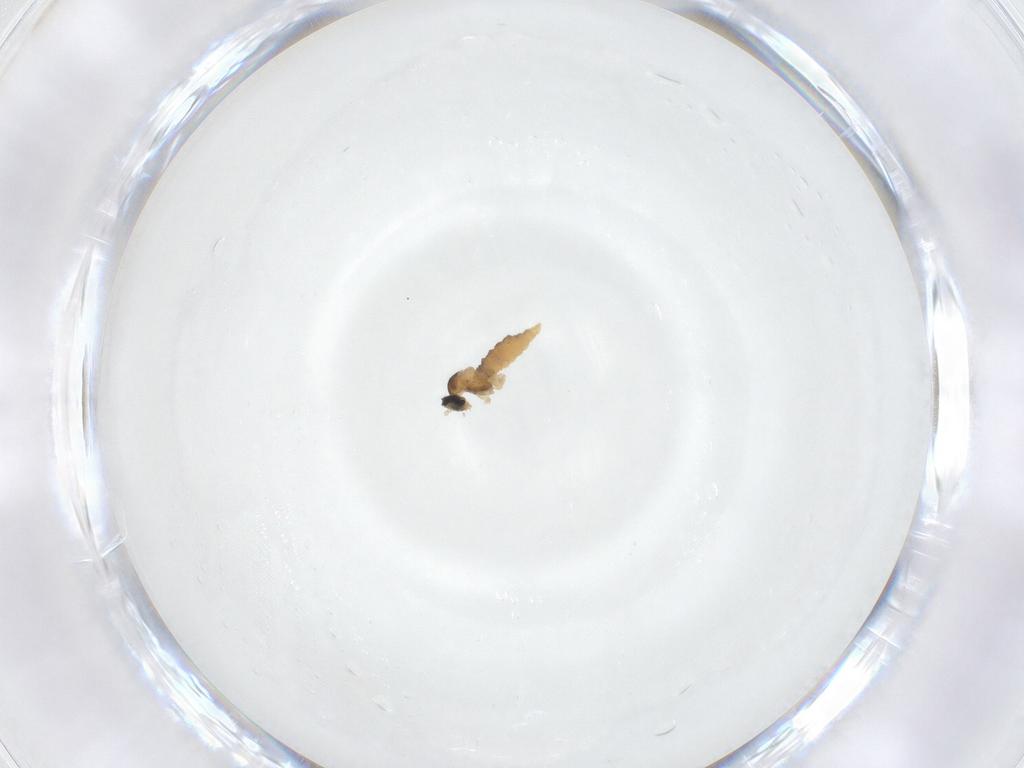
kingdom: Animalia
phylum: Arthropoda
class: Insecta
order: Diptera
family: Cecidomyiidae
